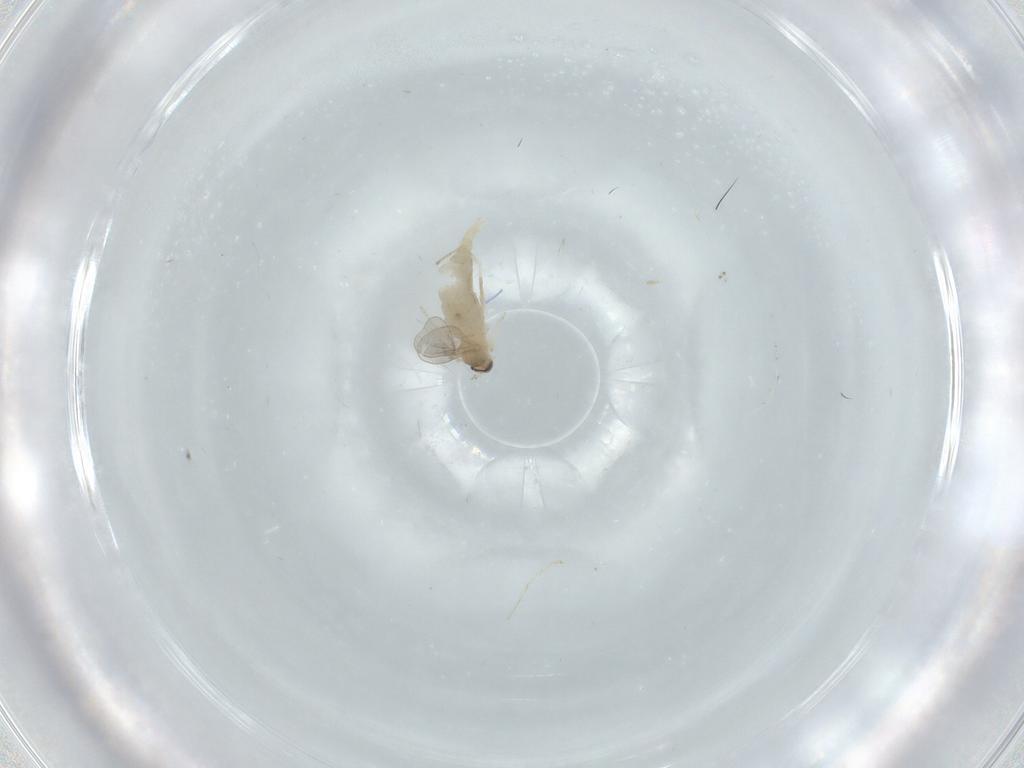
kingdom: Animalia
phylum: Arthropoda
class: Insecta
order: Diptera
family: Cecidomyiidae
